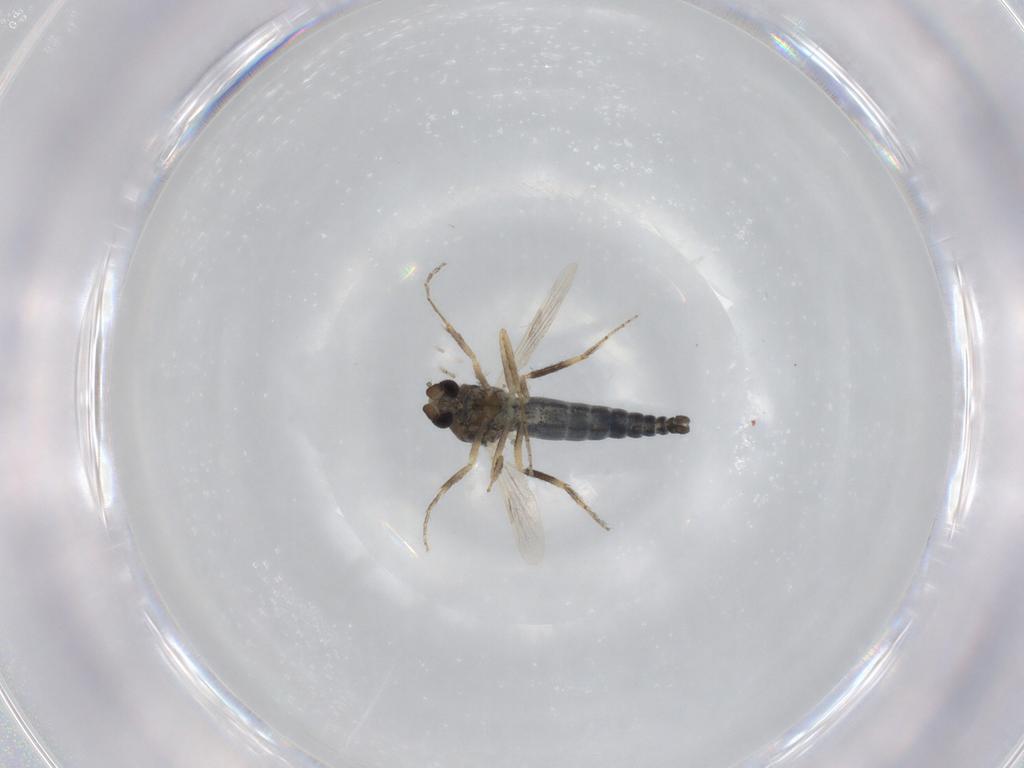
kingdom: Animalia
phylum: Arthropoda
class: Insecta
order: Diptera
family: Ceratopogonidae
